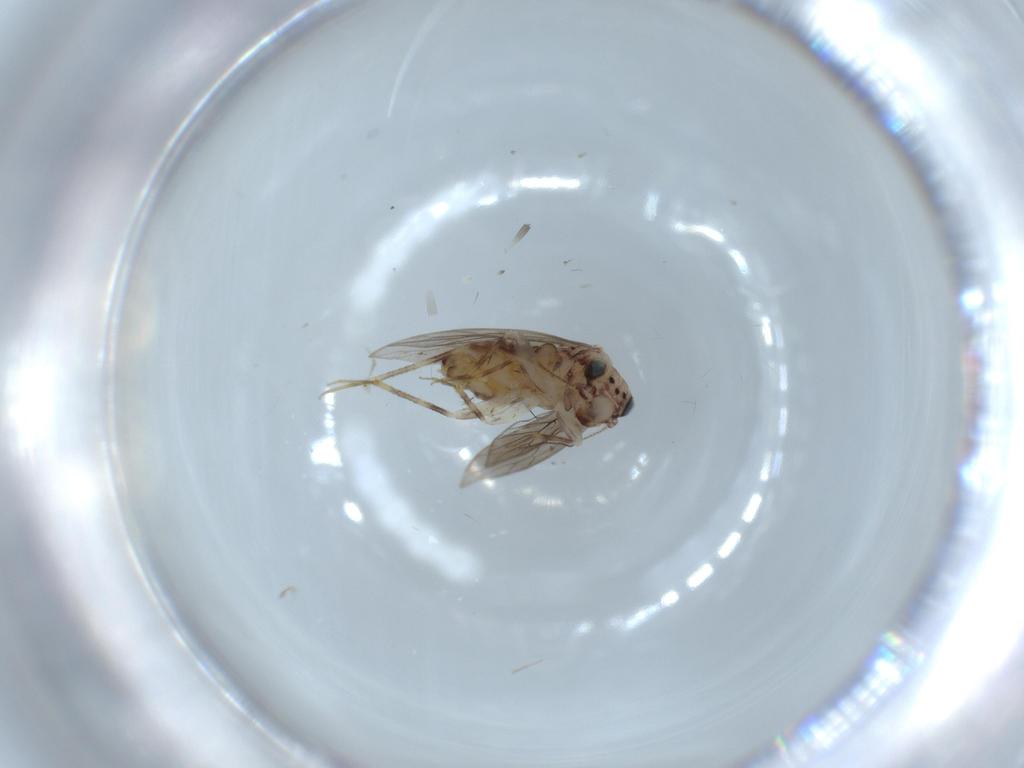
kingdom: Animalia
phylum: Arthropoda
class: Insecta
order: Psocodea
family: Lepidopsocidae
